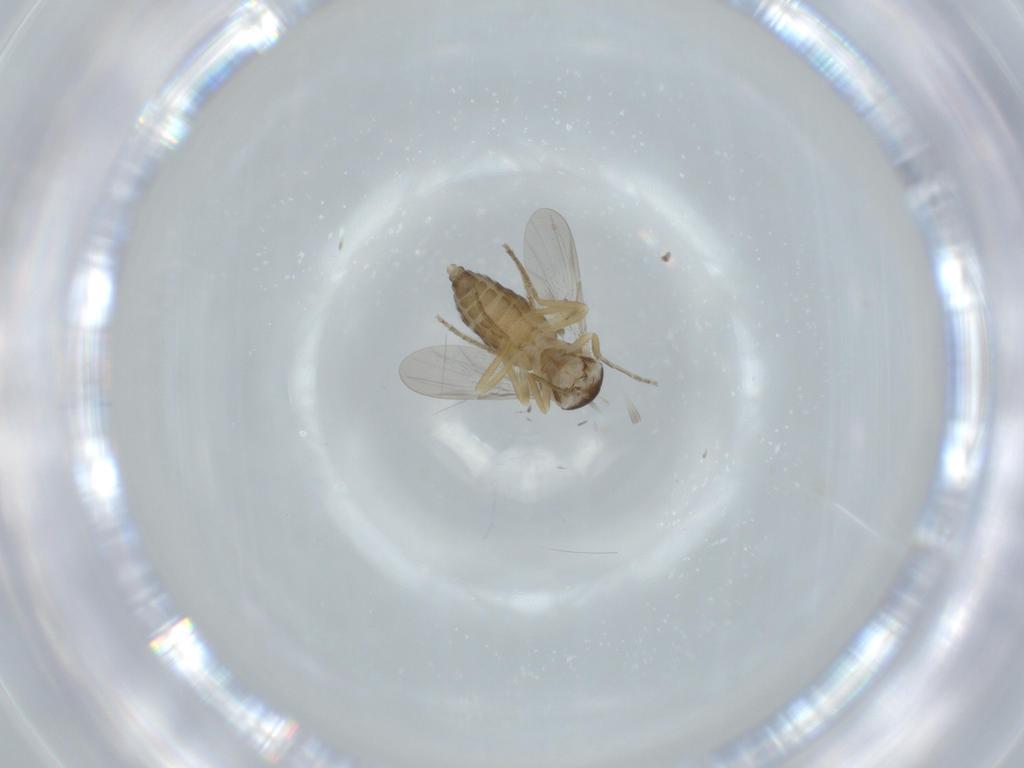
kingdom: Animalia
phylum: Arthropoda
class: Insecta
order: Diptera
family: Ceratopogonidae
